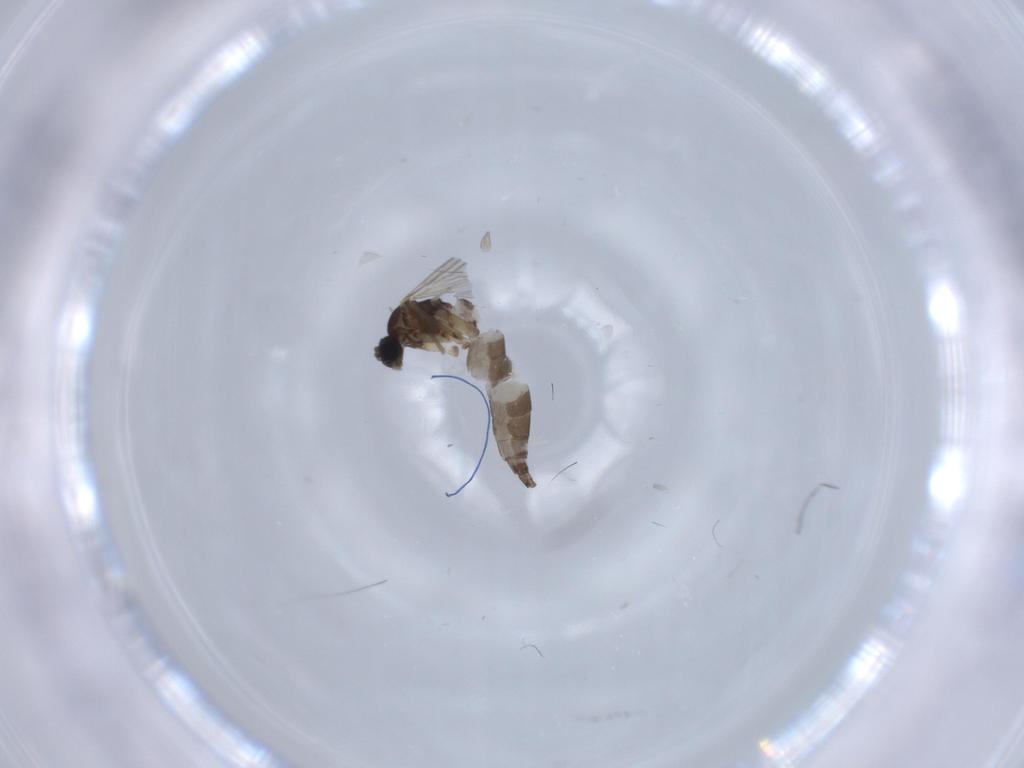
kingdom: Animalia
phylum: Arthropoda
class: Insecta
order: Diptera
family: Sciaridae
